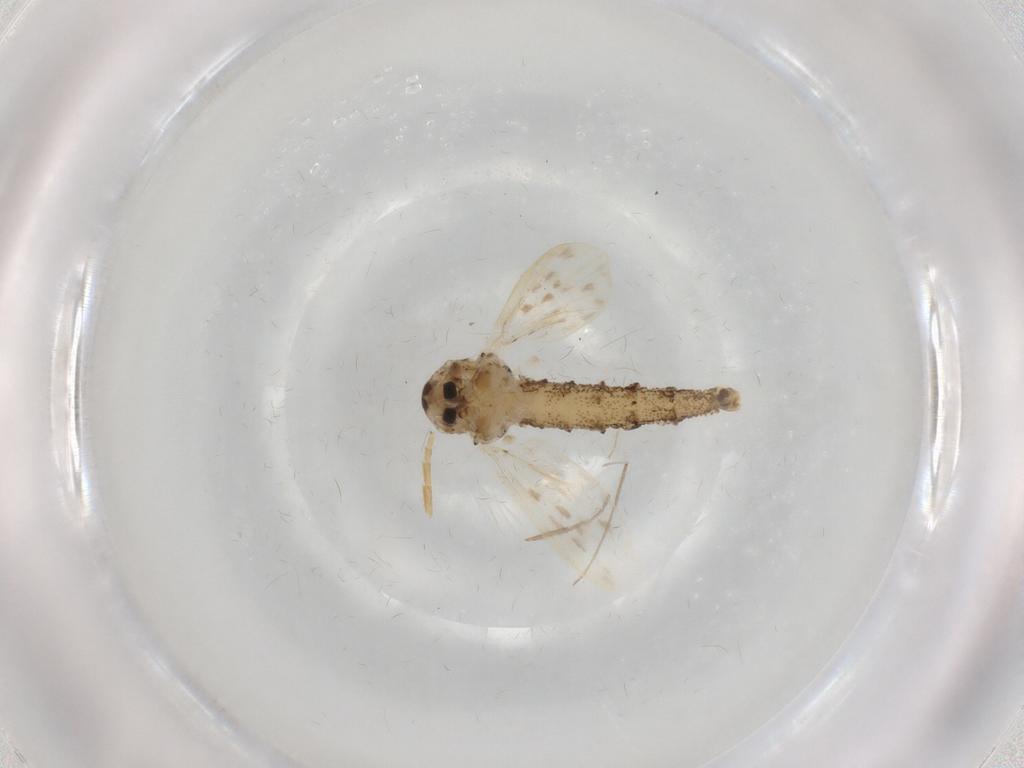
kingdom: Animalia
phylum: Arthropoda
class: Insecta
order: Diptera
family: Chaoboridae
